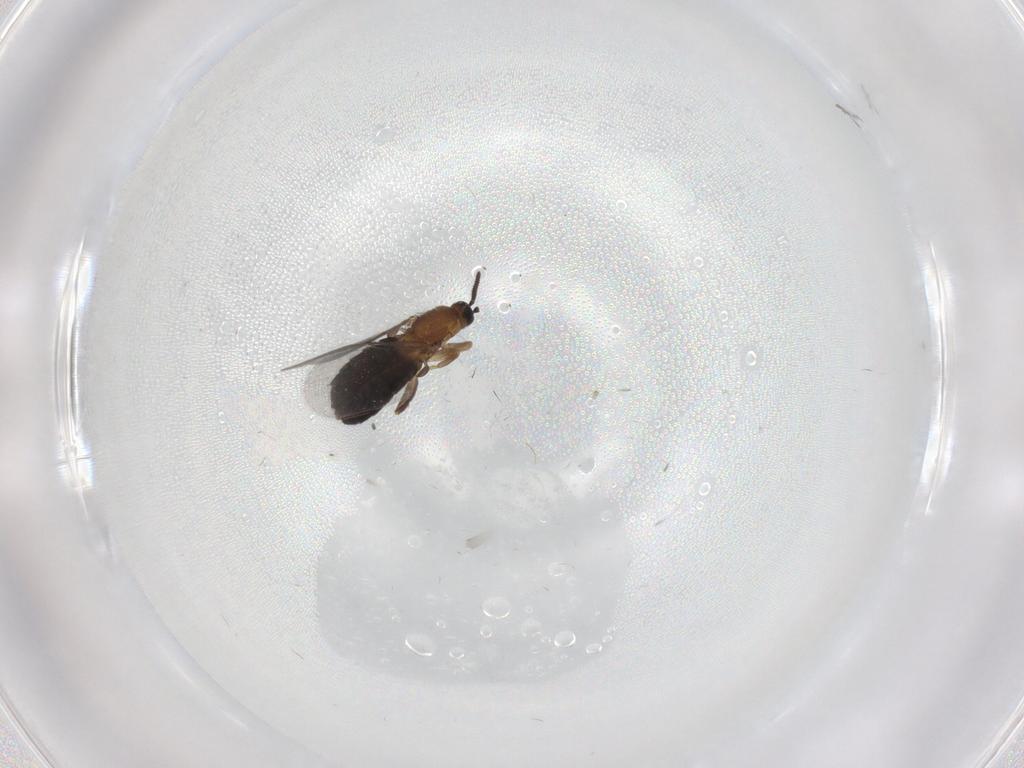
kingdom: Animalia
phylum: Arthropoda
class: Insecta
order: Diptera
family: Scatopsidae
